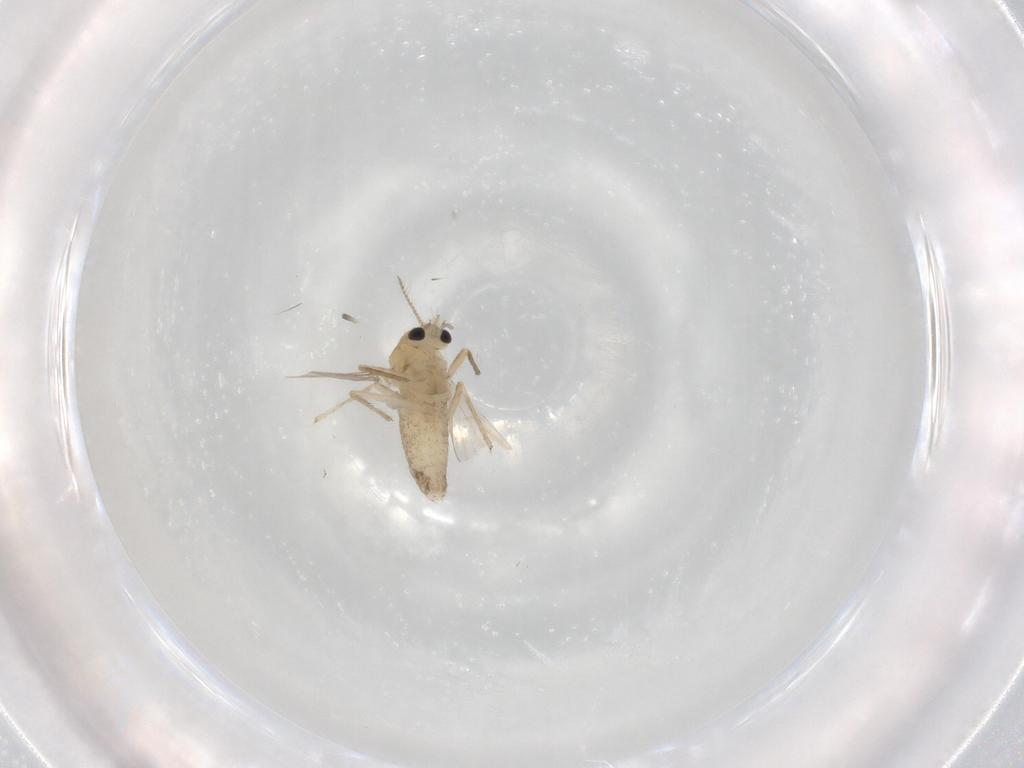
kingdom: Animalia
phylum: Arthropoda
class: Insecta
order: Diptera
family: Chironomidae
